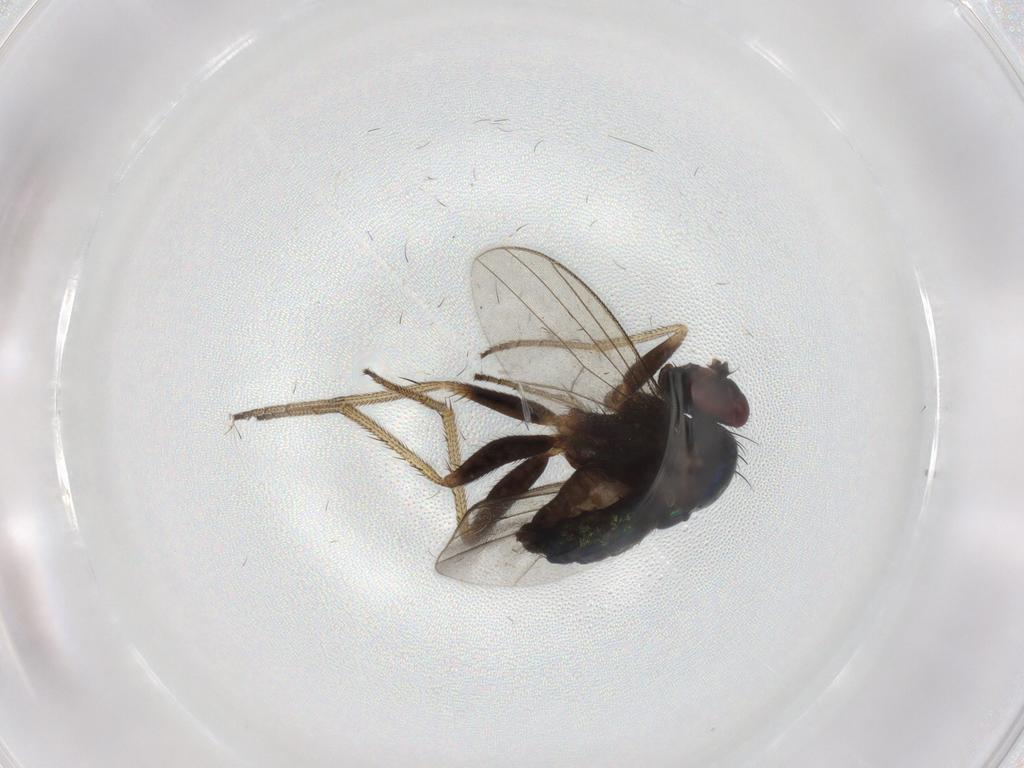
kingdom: Animalia
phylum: Arthropoda
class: Insecta
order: Diptera
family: Dolichopodidae
